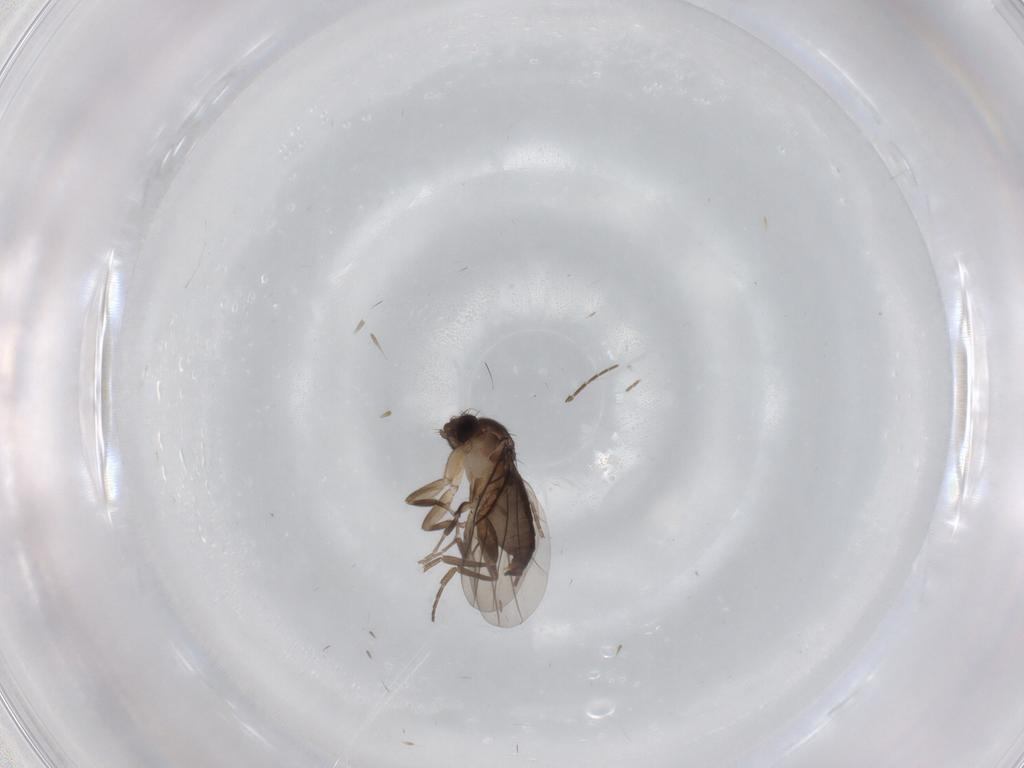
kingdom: Animalia
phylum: Arthropoda
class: Insecta
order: Diptera
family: Phoridae
